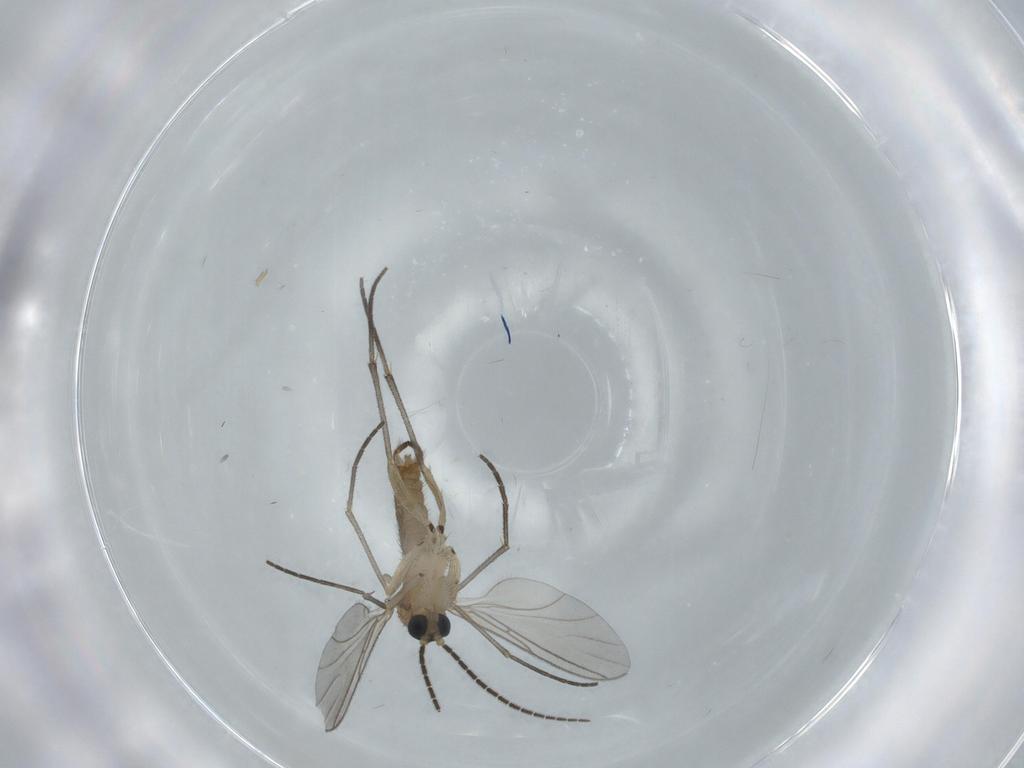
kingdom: Animalia
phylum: Arthropoda
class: Insecta
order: Diptera
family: Sciaridae
